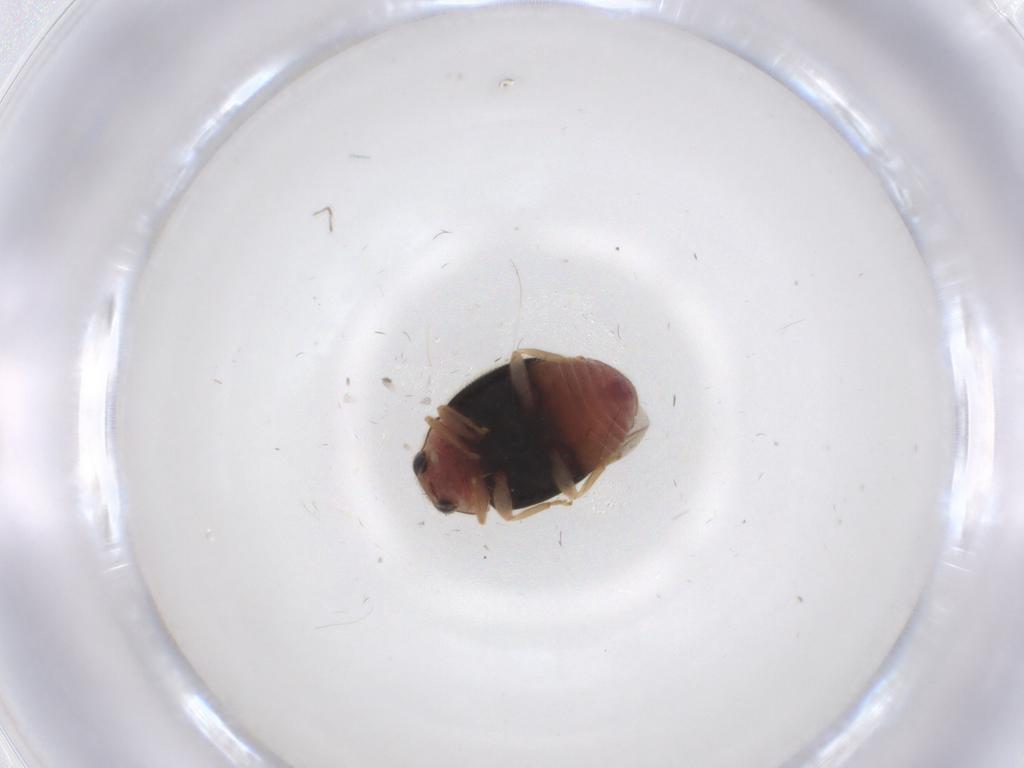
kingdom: Animalia
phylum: Arthropoda
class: Insecta
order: Coleoptera
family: Coccinellidae
